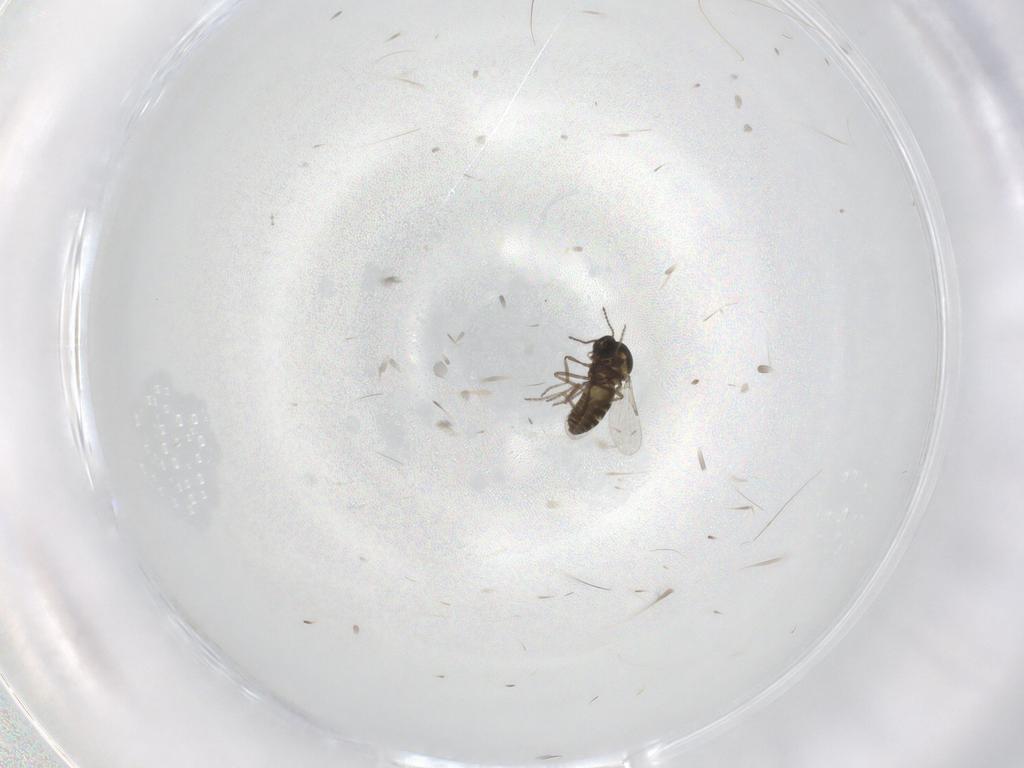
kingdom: Animalia
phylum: Arthropoda
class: Insecta
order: Diptera
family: Ceratopogonidae
